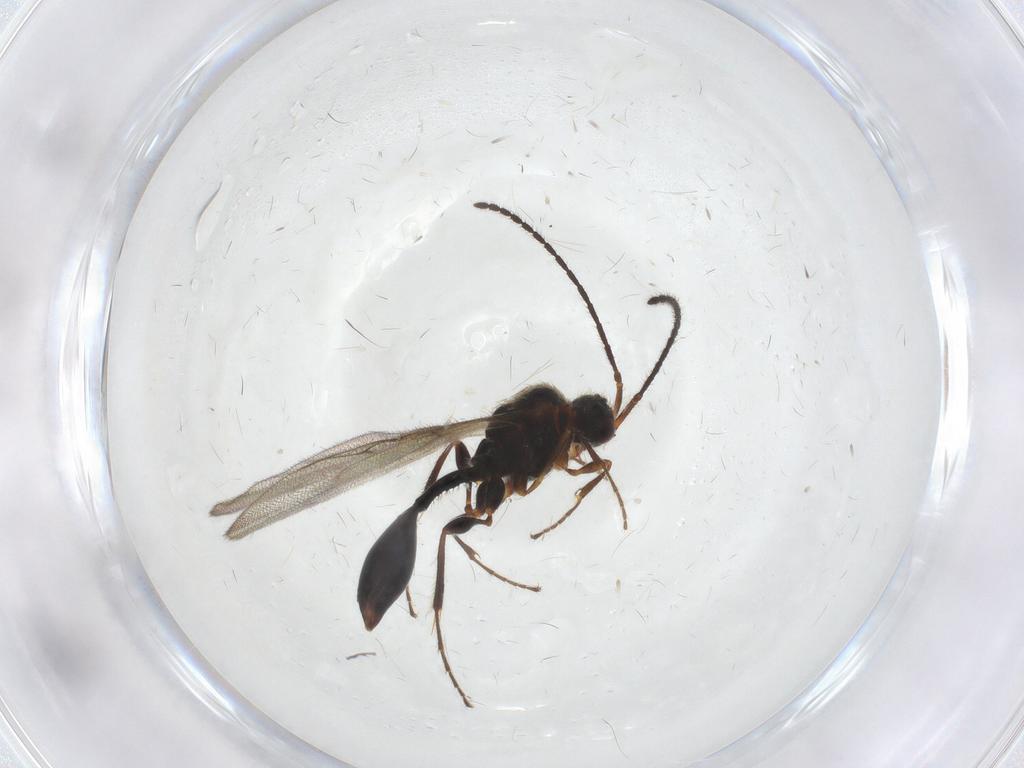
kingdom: Animalia
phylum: Arthropoda
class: Insecta
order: Hymenoptera
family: Diapriidae
